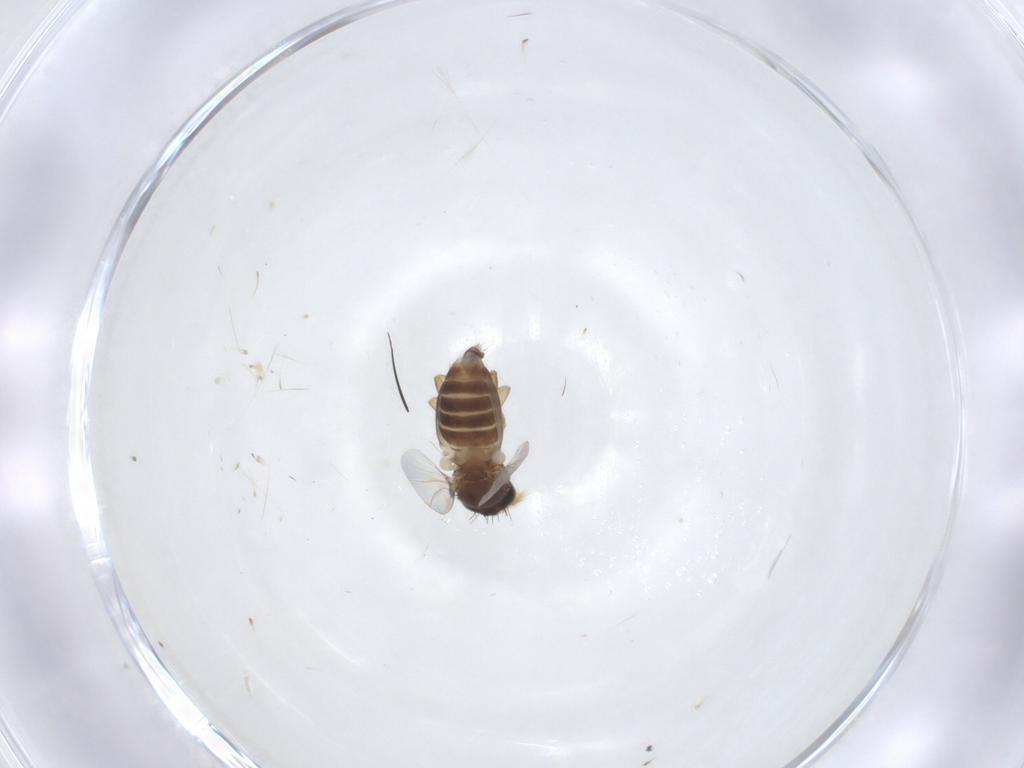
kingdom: Animalia
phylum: Arthropoda
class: Insecta
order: Diptera
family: Phoridae
